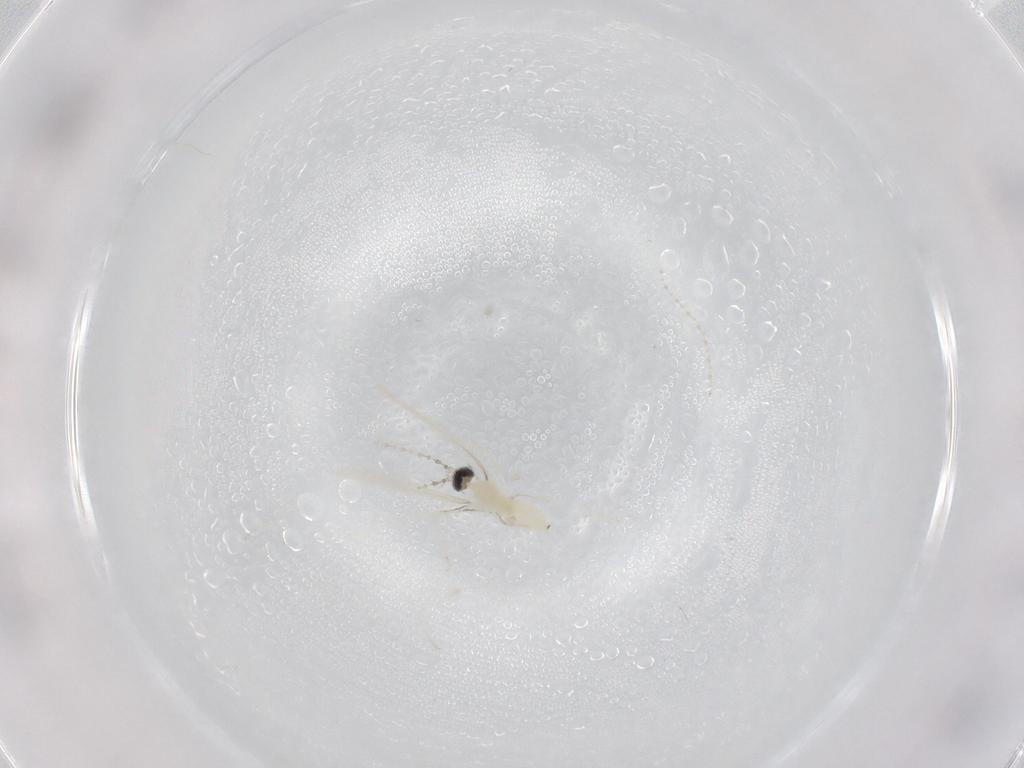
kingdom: Animalia
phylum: Arthropoda
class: Insecta
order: Diptera
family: Cecidomyiidae
